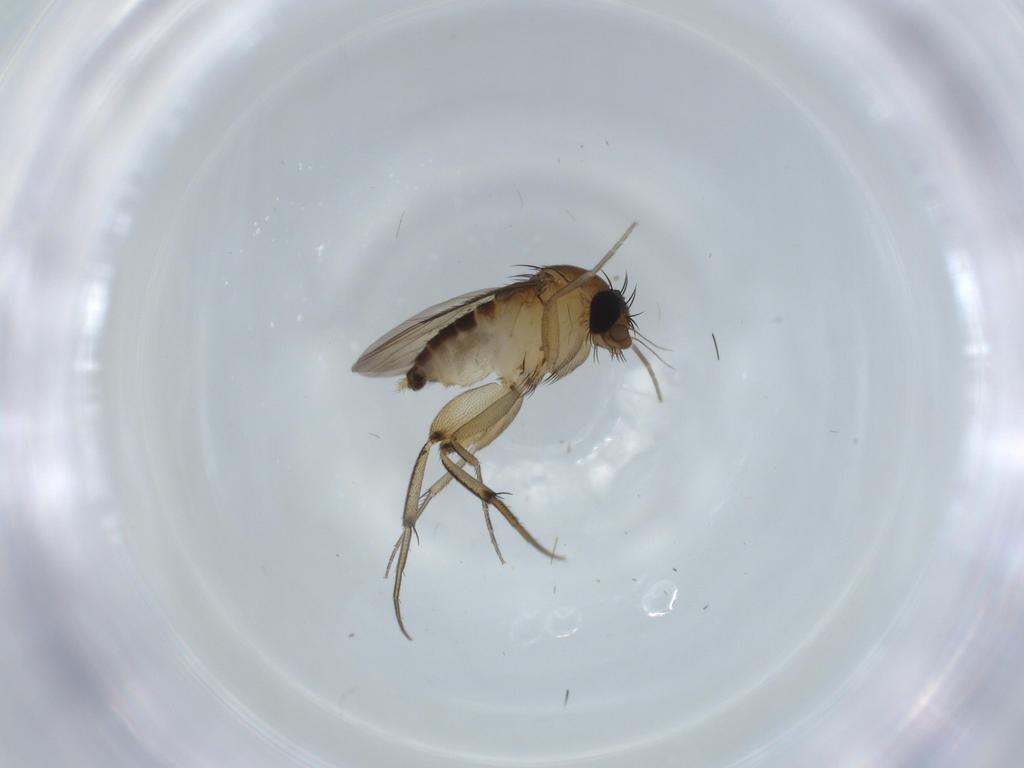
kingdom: Animalia
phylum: Arthropoda
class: Insecta
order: Diptera
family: Phoridae
